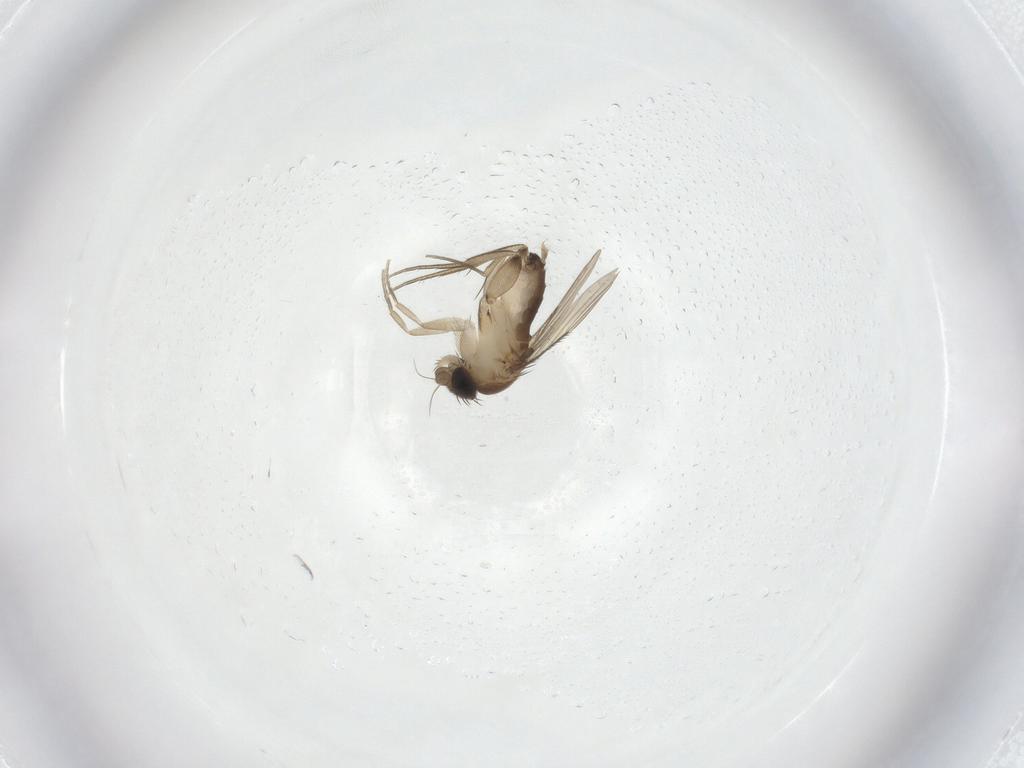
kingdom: Animalia
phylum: Arthropoda
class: Insecta
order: Diptera
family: Phoridae
